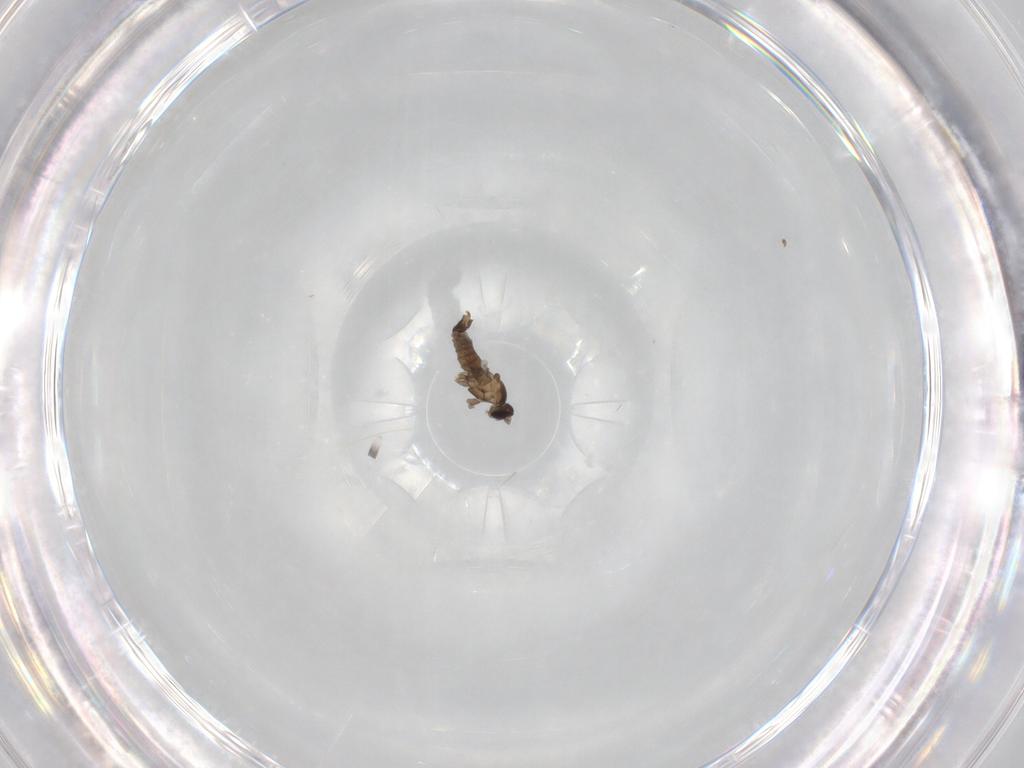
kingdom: Animalia
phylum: Arthropoda
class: Insecta
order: Diptera
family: Cecidomyiidae
